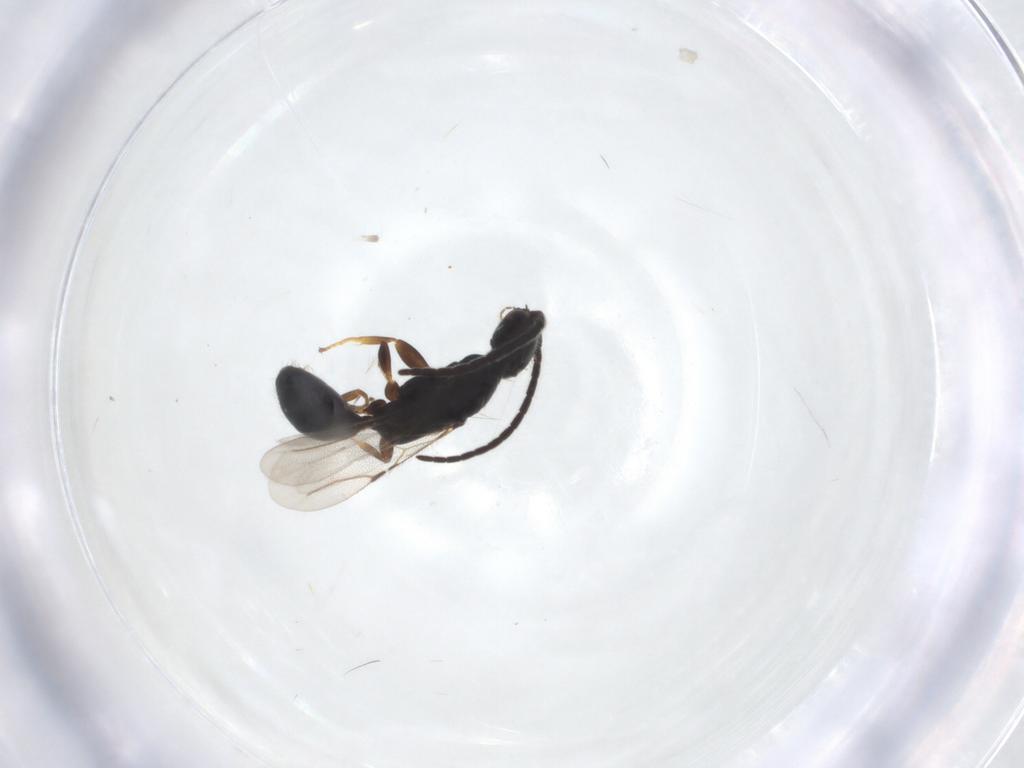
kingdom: Animalia
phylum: Arthropoda
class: Insecta
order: Hymenoptera
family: Bethylidae
